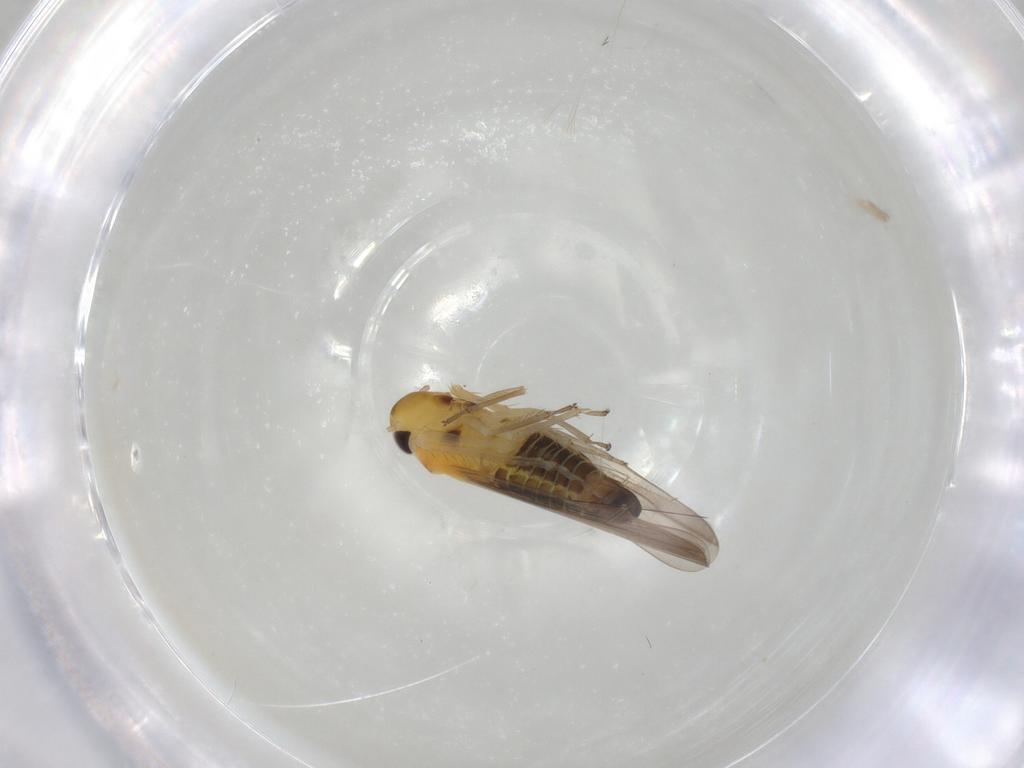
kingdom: Animalia
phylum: Arthropoda
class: Insecta
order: Hemiptera
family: Cicadellidae
